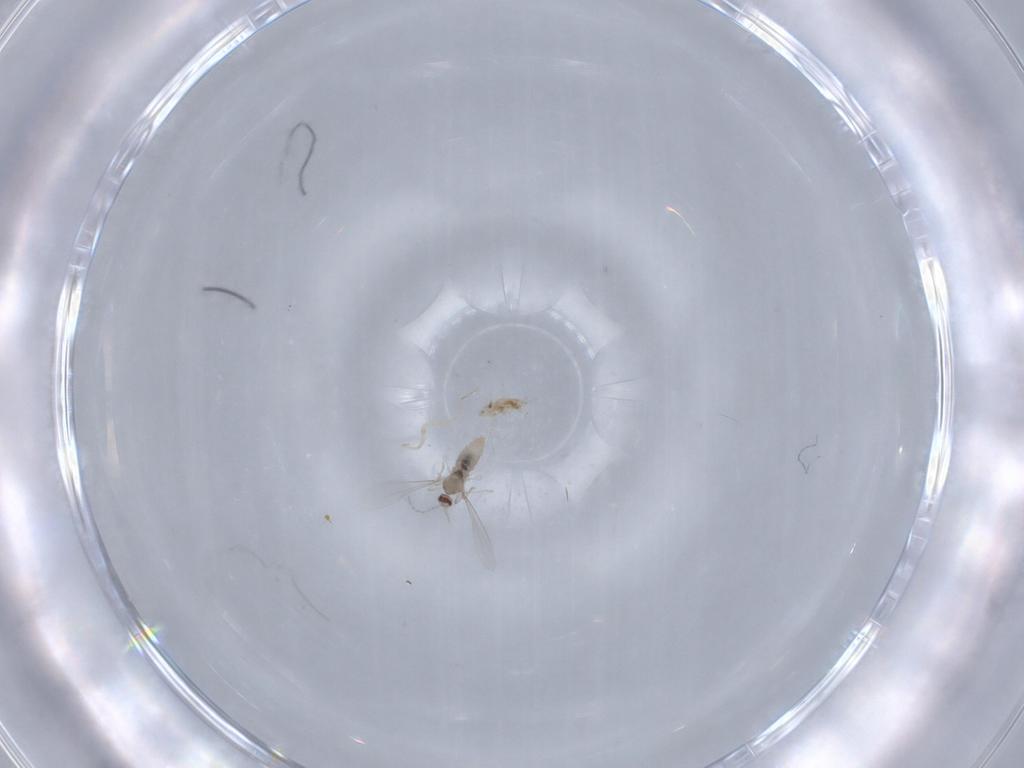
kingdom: Animalia
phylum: Arthropoda
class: Insecta
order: Diptera
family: Cecidomyiidae
